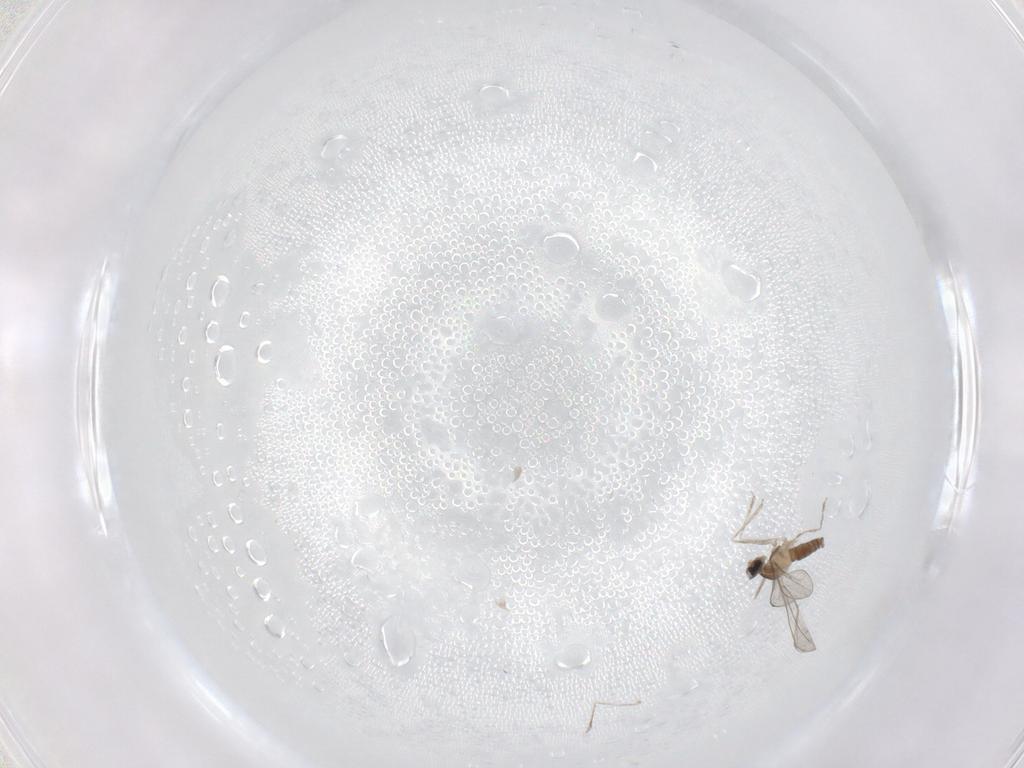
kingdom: Animalia
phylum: Arthropoda
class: Insecta
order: Diptera
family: Cecidomyiidae
